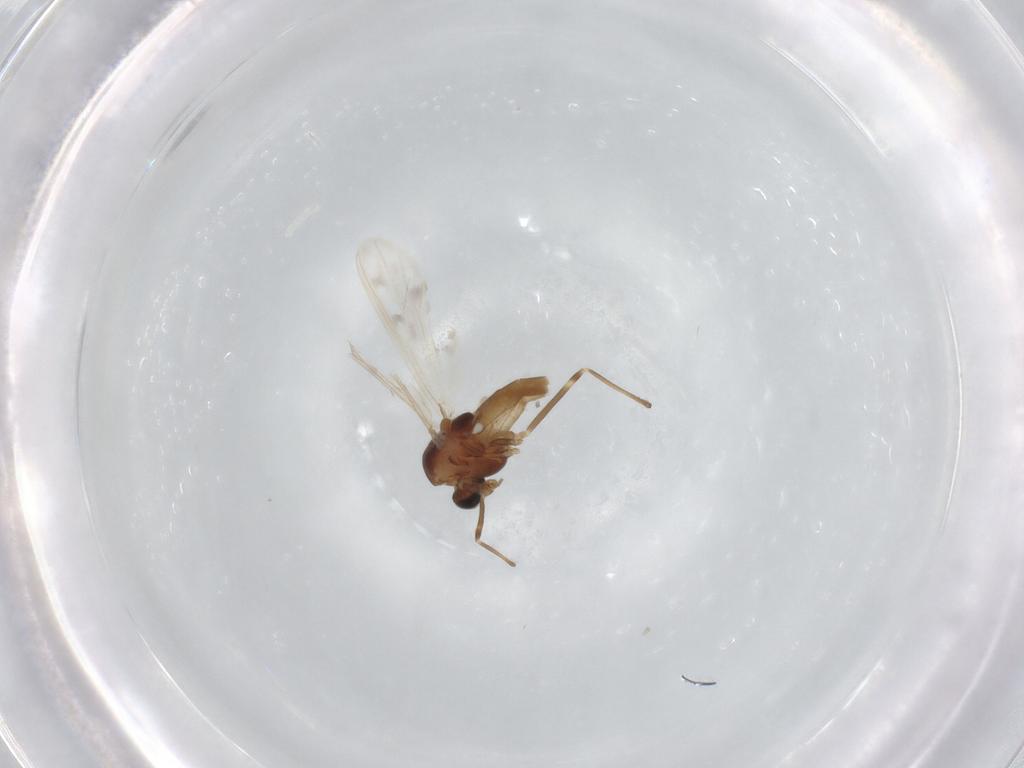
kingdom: Animalia
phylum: Arthropoda
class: Insecta
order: Diptera
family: Chironomidae
